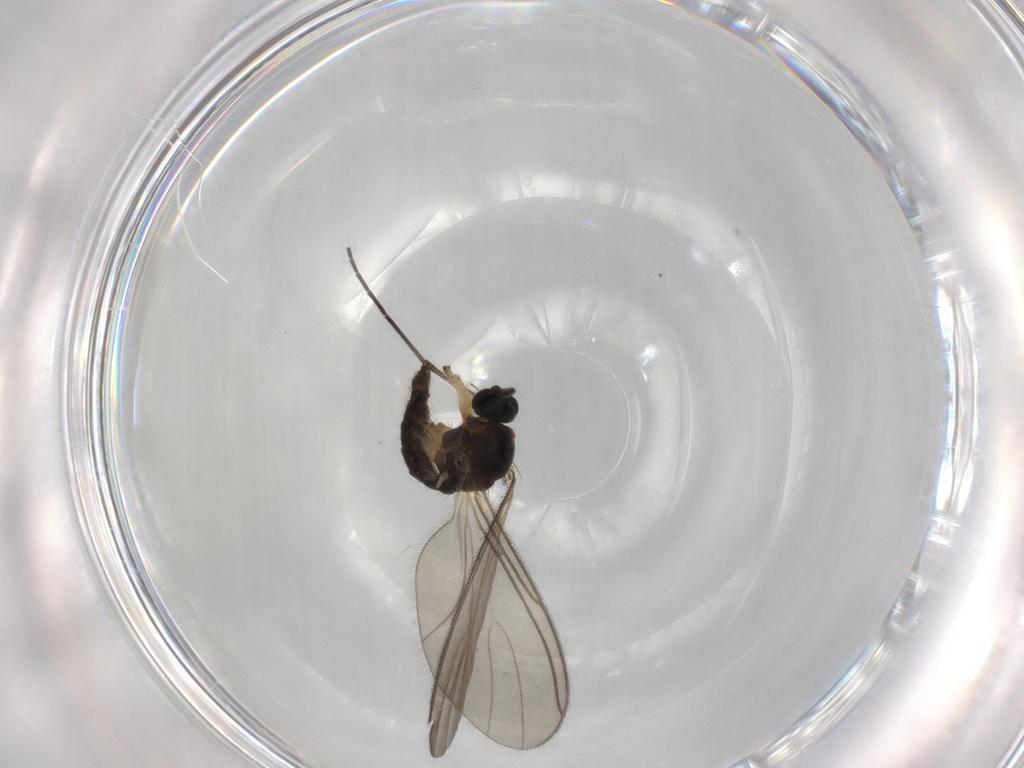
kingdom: Animalia
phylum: Arthropoda
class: Insecta
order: Diptera
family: Sciaridae
